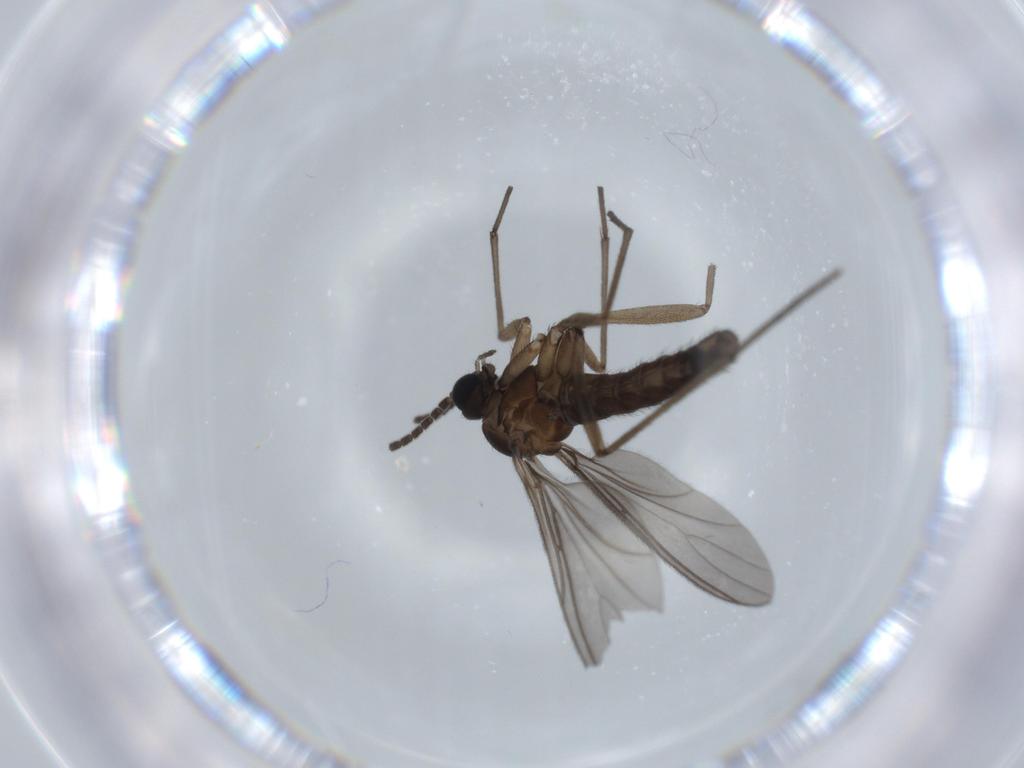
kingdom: Animalia
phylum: Arthropoda
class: Insecta
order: Diptera
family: Sciaridae
